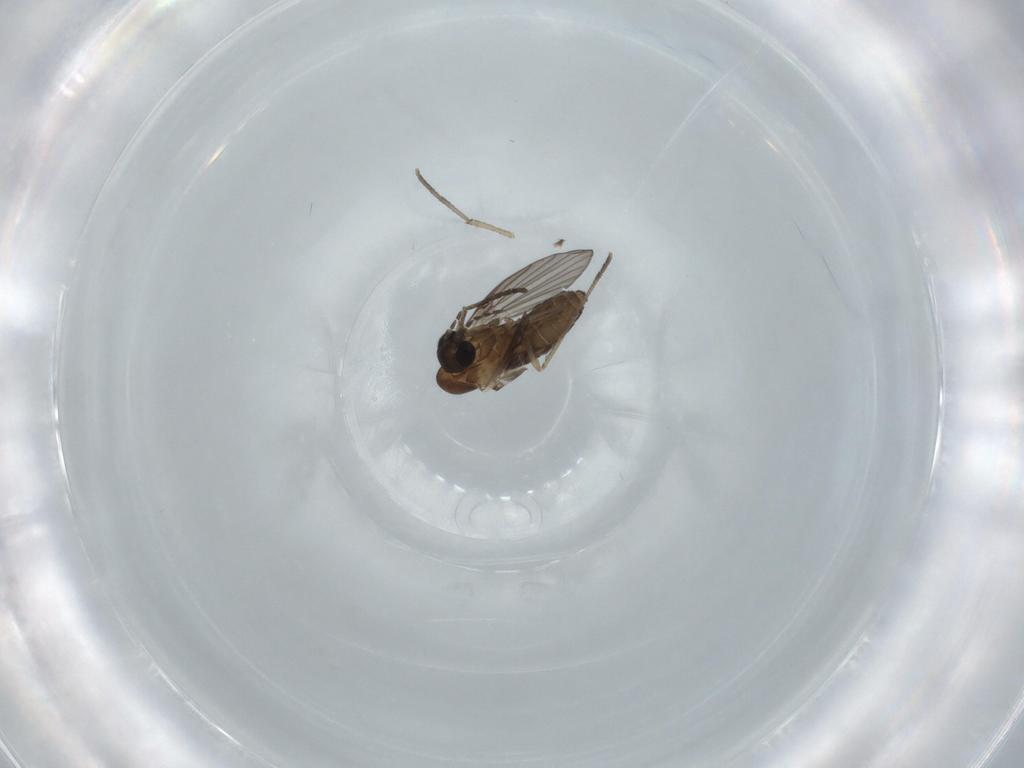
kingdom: Animalia
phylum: Arthropoda
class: Insecta
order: Diptera
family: Psychodidae
